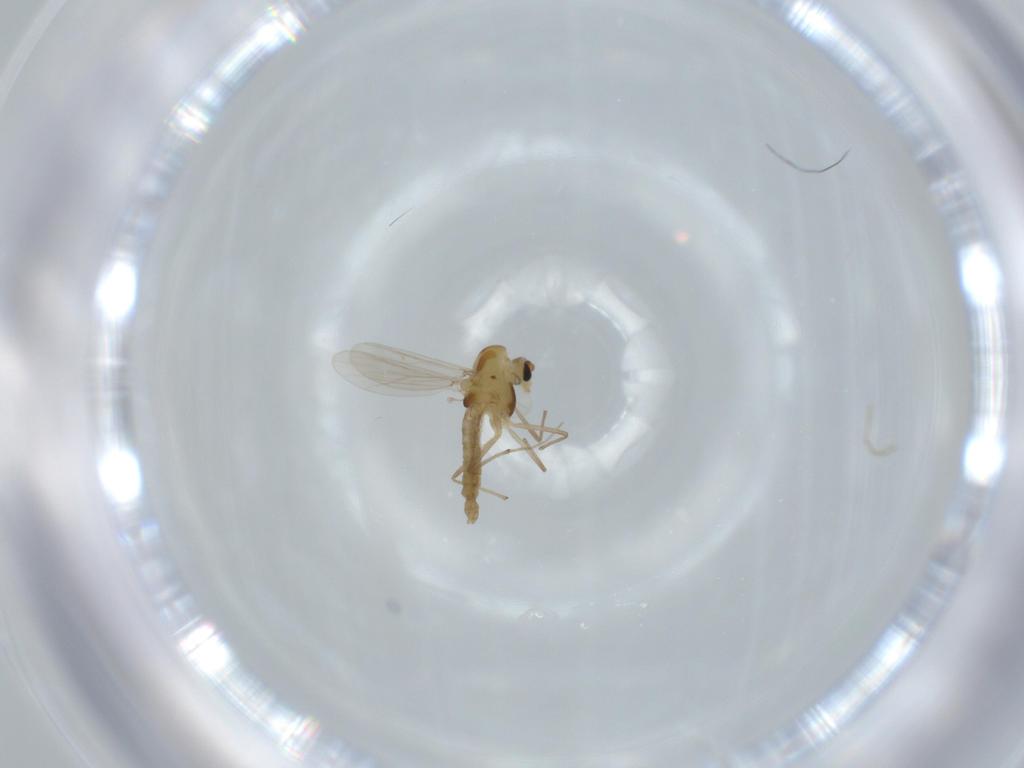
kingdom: Animalia
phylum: Arthropoda
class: Insecta
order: Diptera
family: Chironomidae
